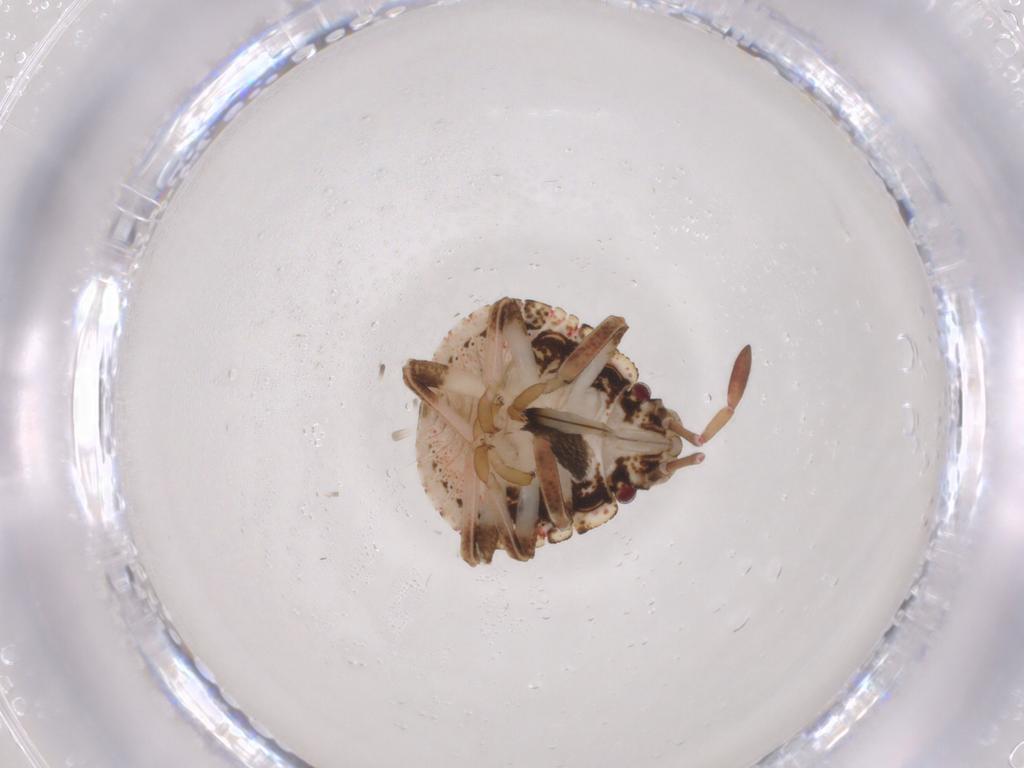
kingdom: Animalia
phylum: Arthropoda
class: Insecta
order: Hemiptera
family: Pentatomidae
